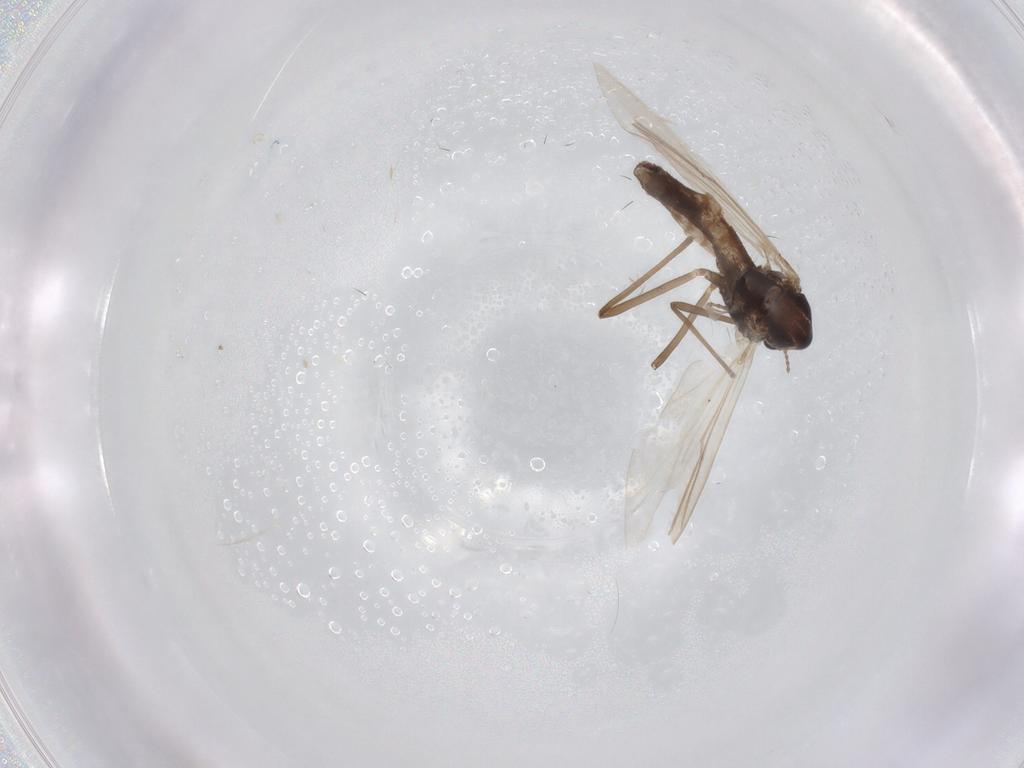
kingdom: Animalia
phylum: Arthropoda
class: Insecta
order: Diptera
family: Chironomidae
